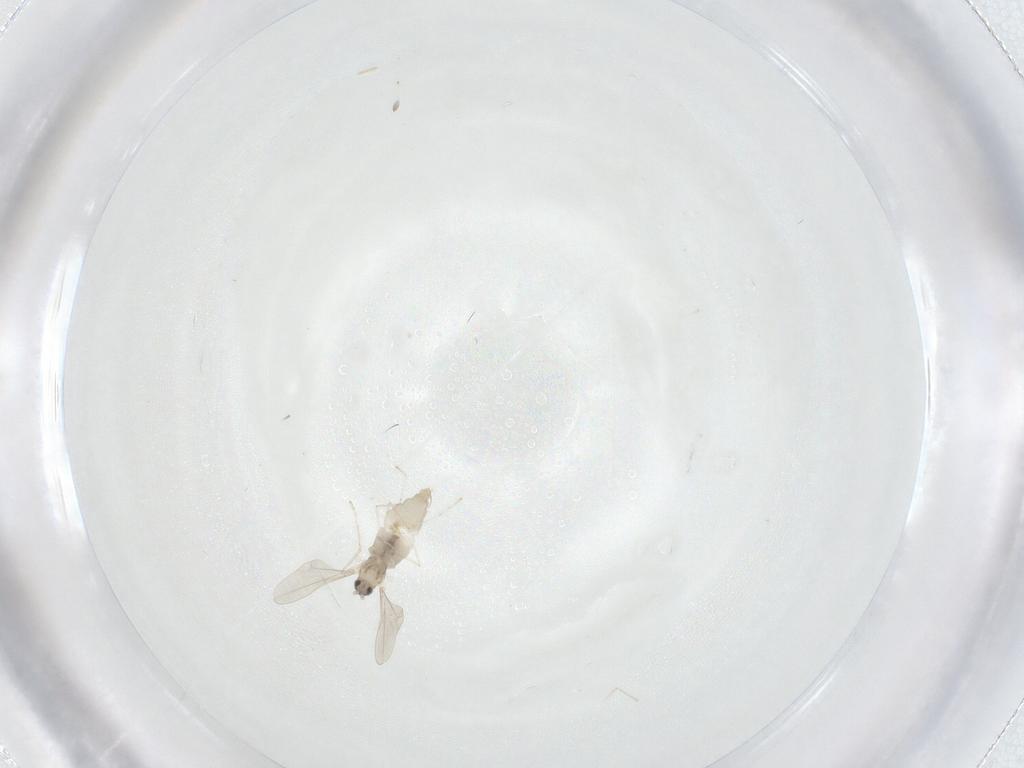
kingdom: Animalia
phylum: Arthropoda
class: Insecta
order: Diptera
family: Cecidomyiidae
